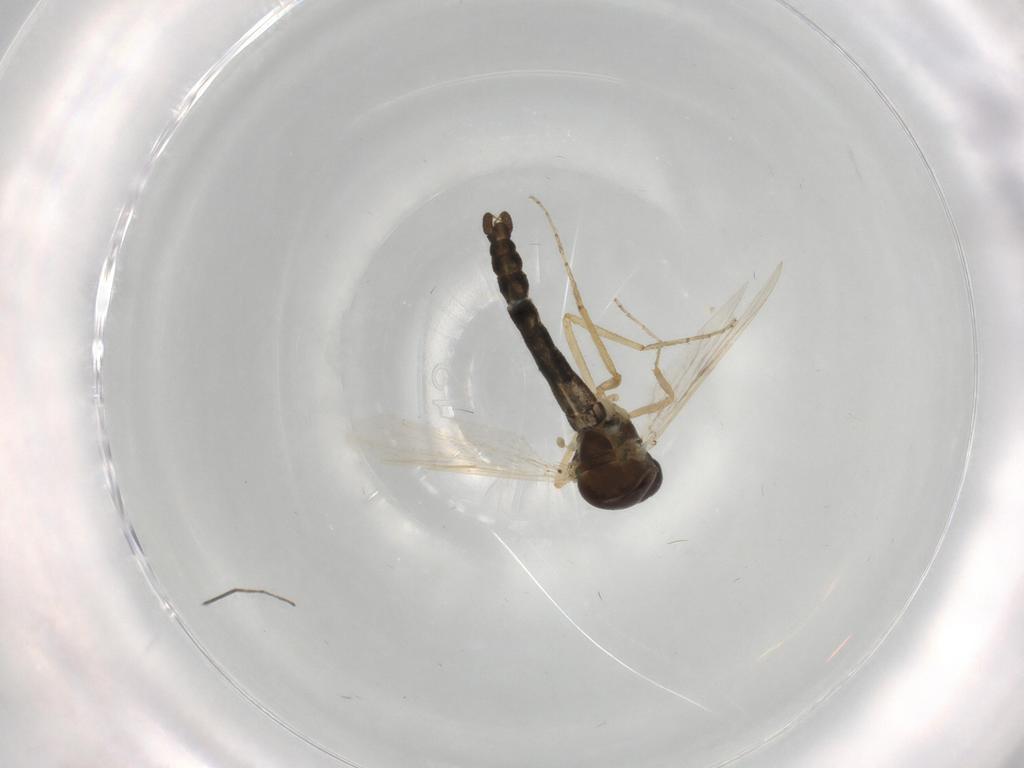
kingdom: Animalia
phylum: Arthropoda
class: Insecta
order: Diptera
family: Ceratopogonidae
